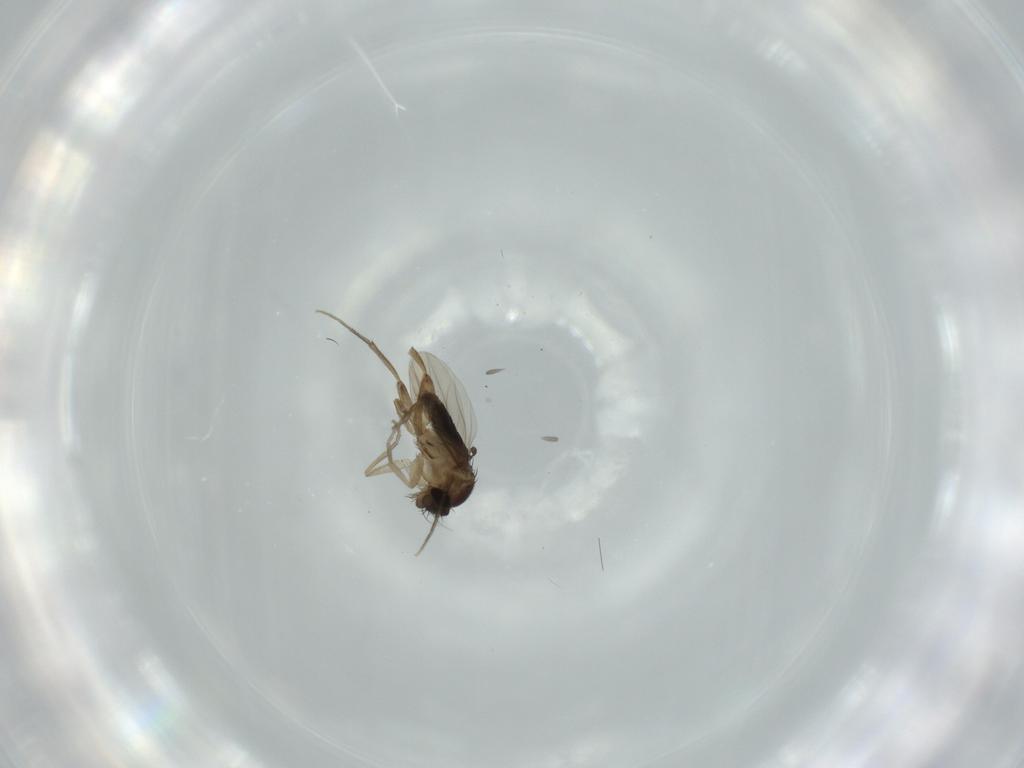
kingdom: Animalia
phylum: Arthropoda
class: Insecta
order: Diptera
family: Phoridae
